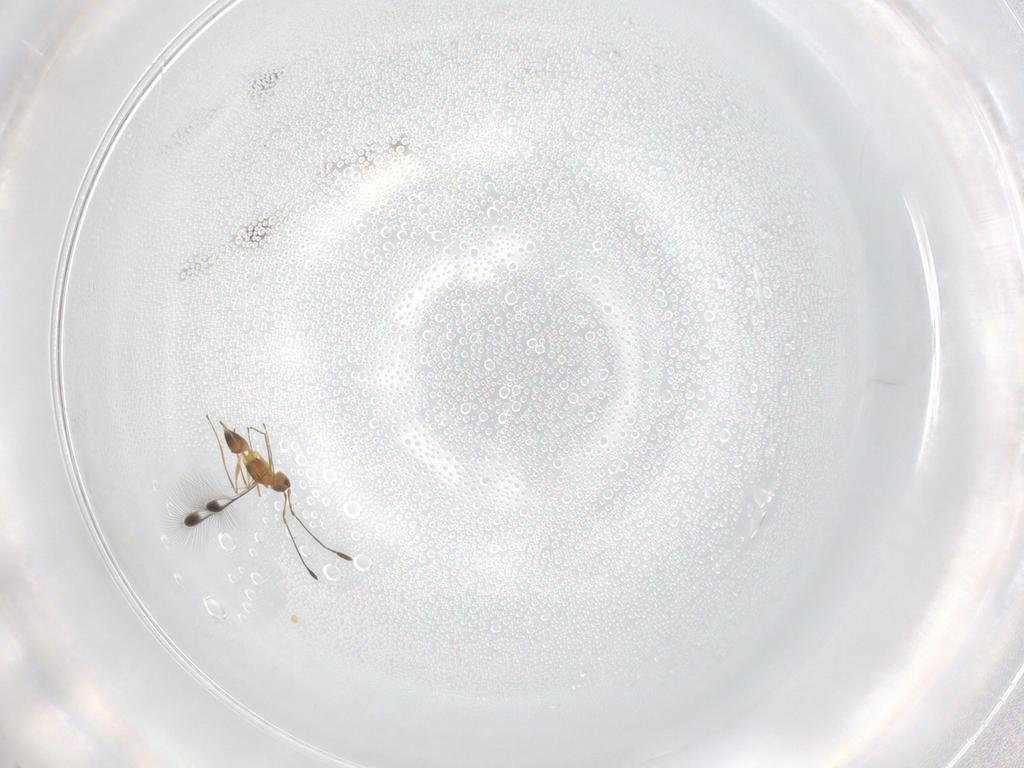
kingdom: Animalia
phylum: Arthropoda
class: Insecta
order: Hymenoptera
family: Mymaridae
